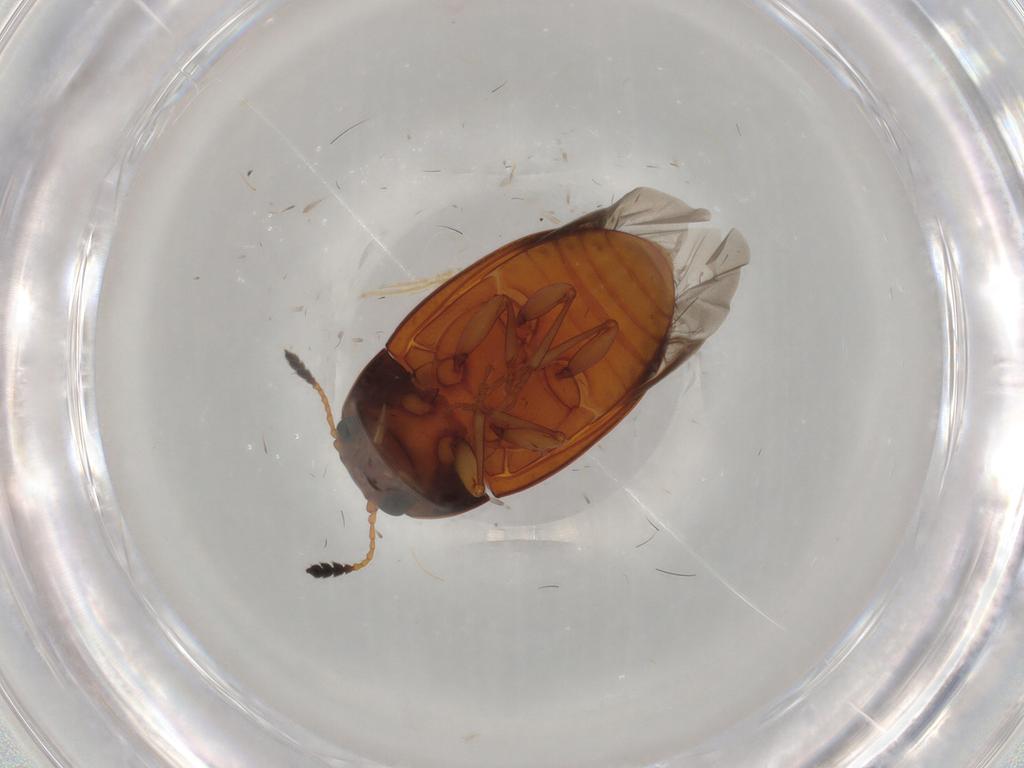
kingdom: Animalia
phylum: Arthropoda
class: Insecta
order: Coleoptera
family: Erotylidae
